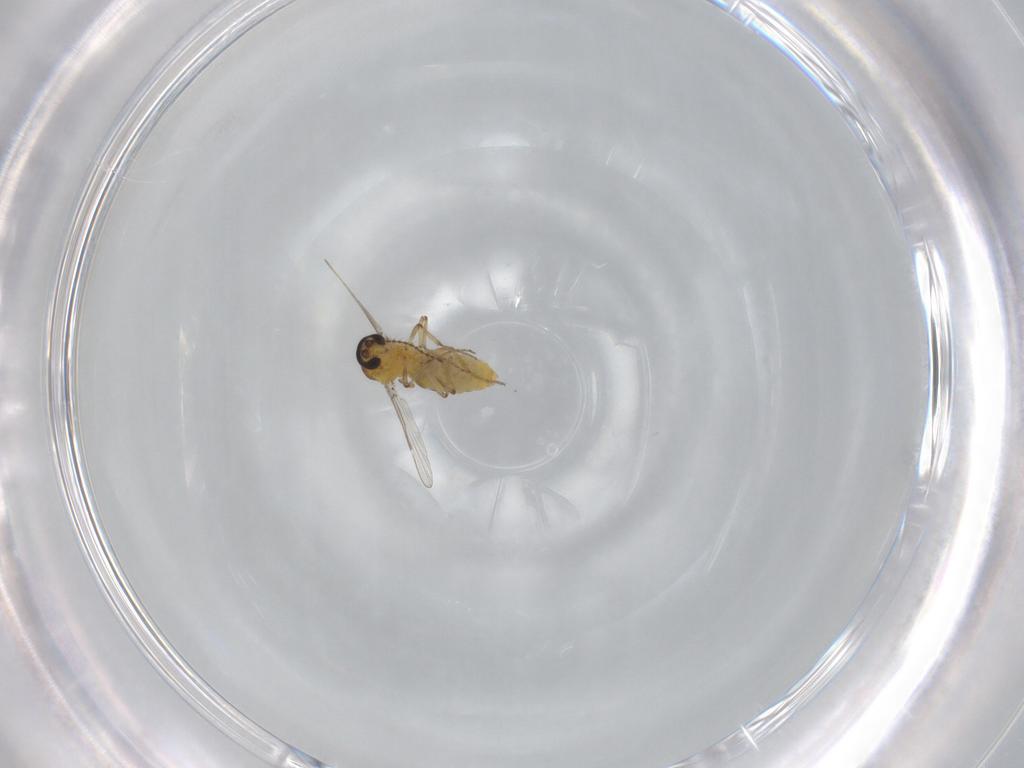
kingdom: Animalia
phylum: Arthropoda
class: Insecta
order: Diptera
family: Ceratopogonidae
